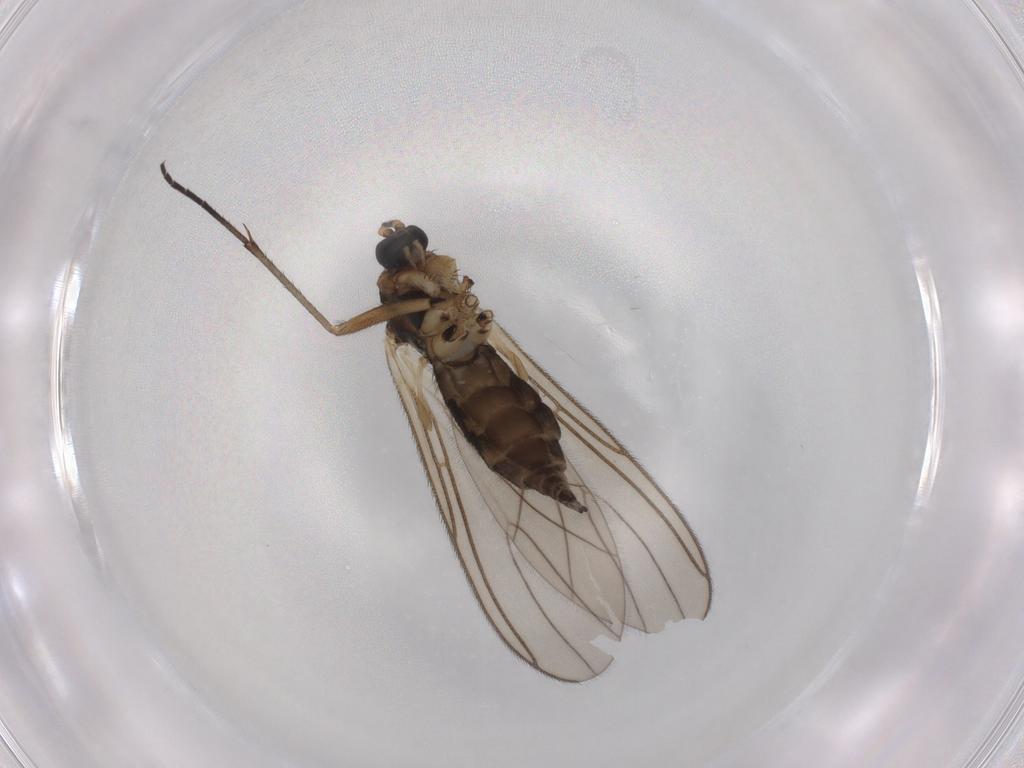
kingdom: Animalia
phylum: Arthropoda
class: Insecta
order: Diptera
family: Sciaridae
